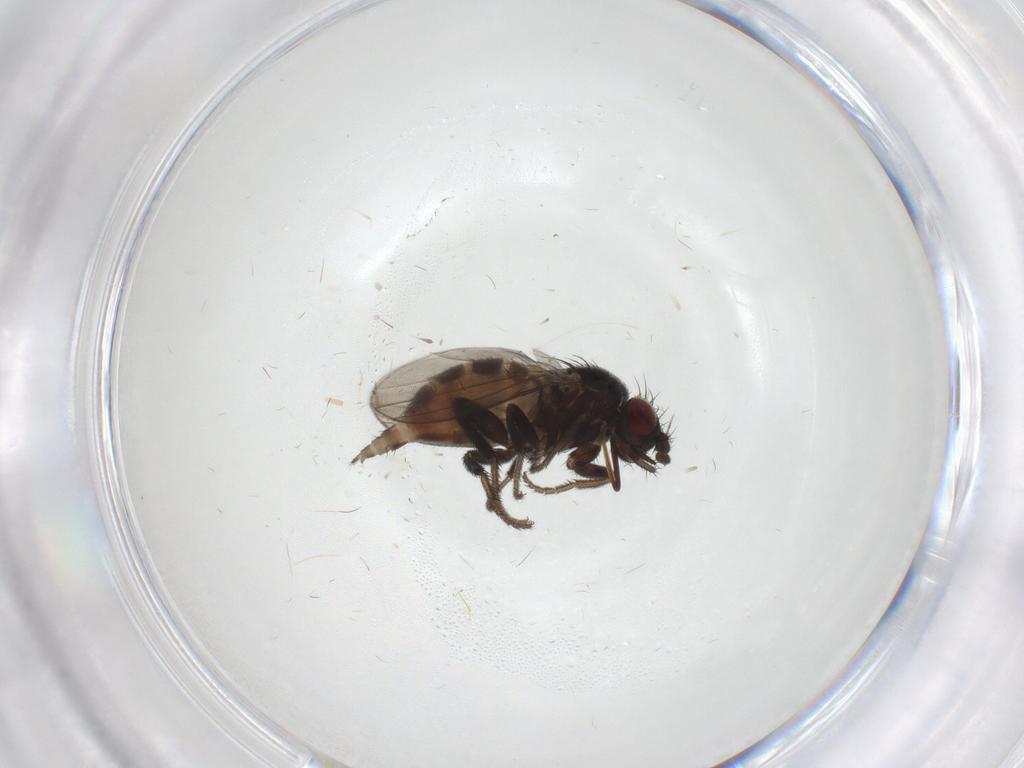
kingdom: Animalia
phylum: Arthropoda
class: Insecta
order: Diptera
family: Milichiidae
